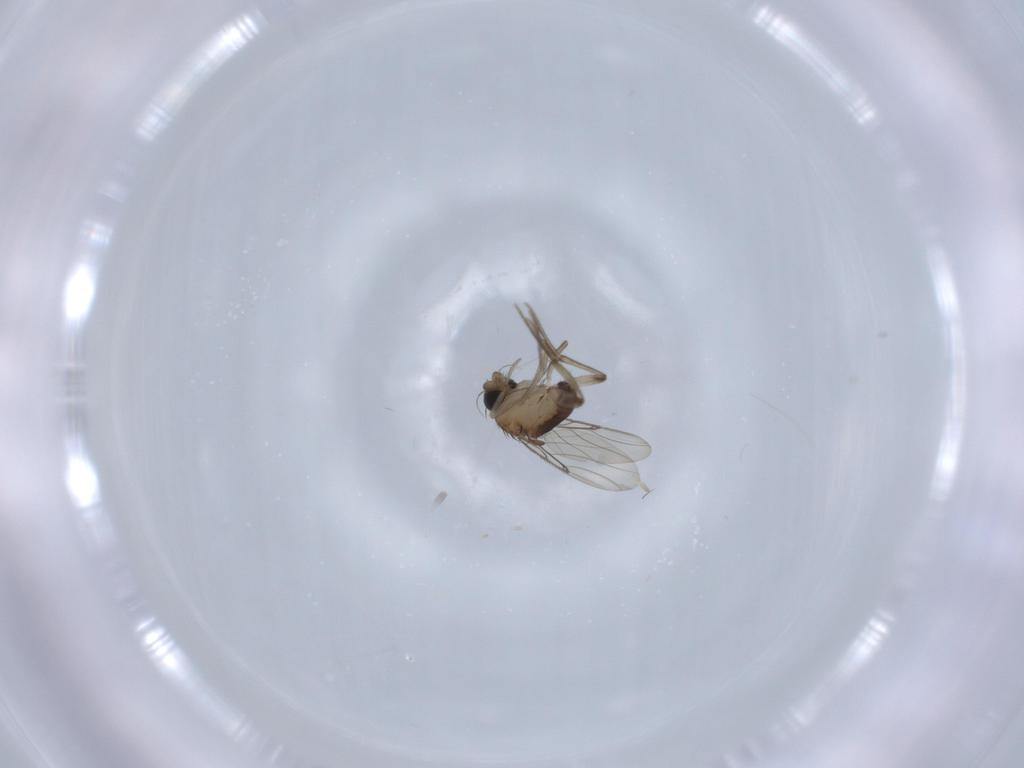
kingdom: Animalia
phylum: Arthropoda
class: Insecta
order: Diptera
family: Phoridae
